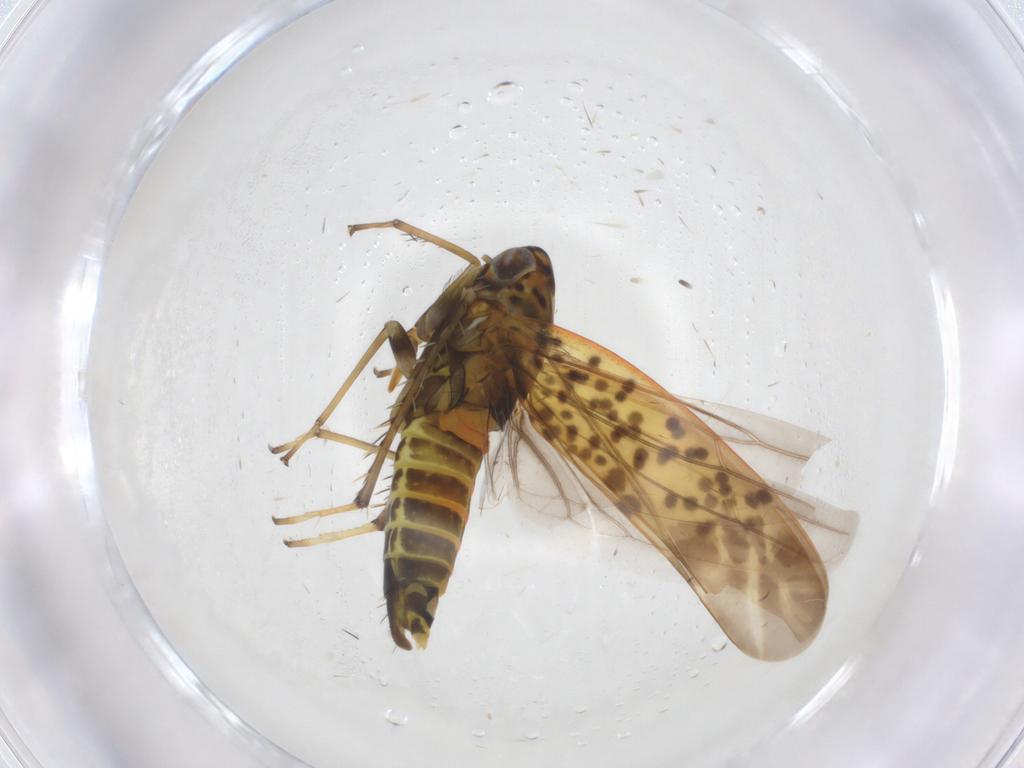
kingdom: Animalia
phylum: Arthropoda
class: Insecta
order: Hemiptera
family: Cicadellidae
